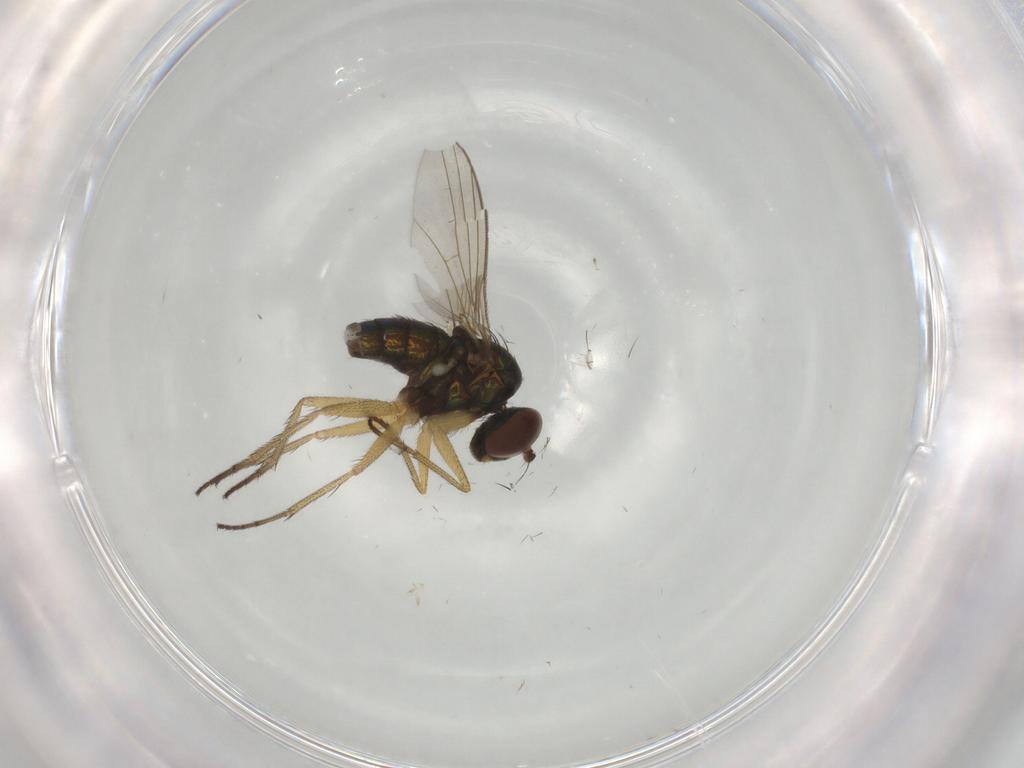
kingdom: Animalia
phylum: Arthropoda
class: Insecta
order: Diptera
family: Dolichopodidae
